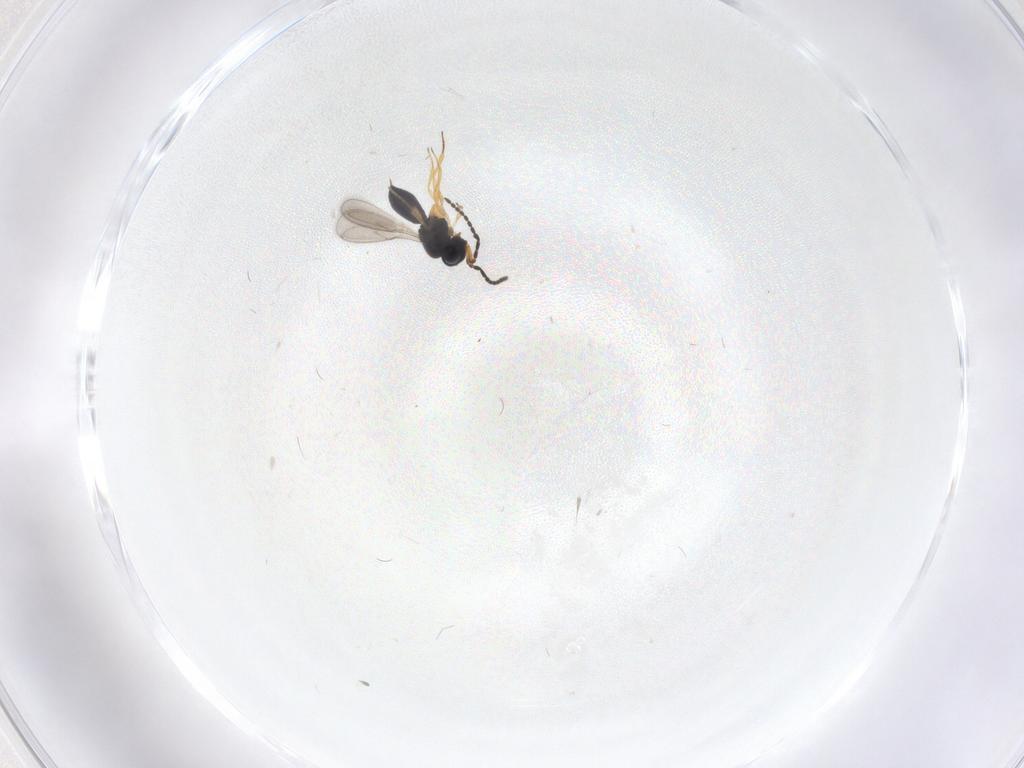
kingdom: Animalia
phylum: Arthropoda
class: Insecta
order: Hymenoptera
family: Scelionidae
